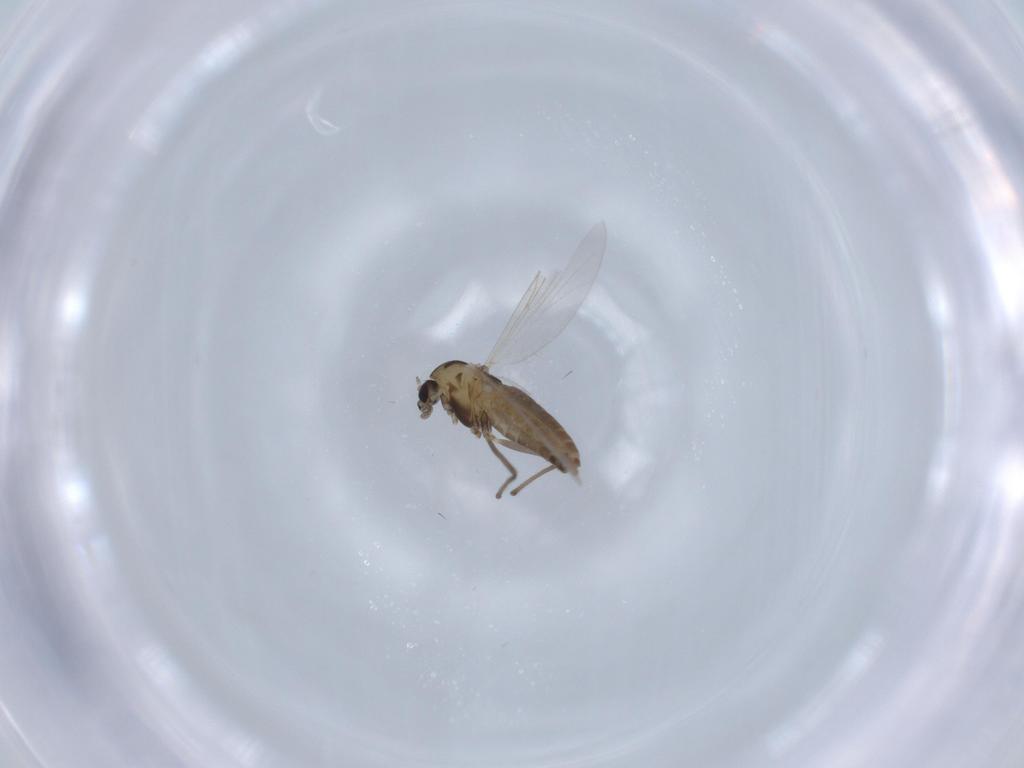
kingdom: Animalia
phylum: Arthropoda
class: Insecta
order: Diptera
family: Chironomidae
